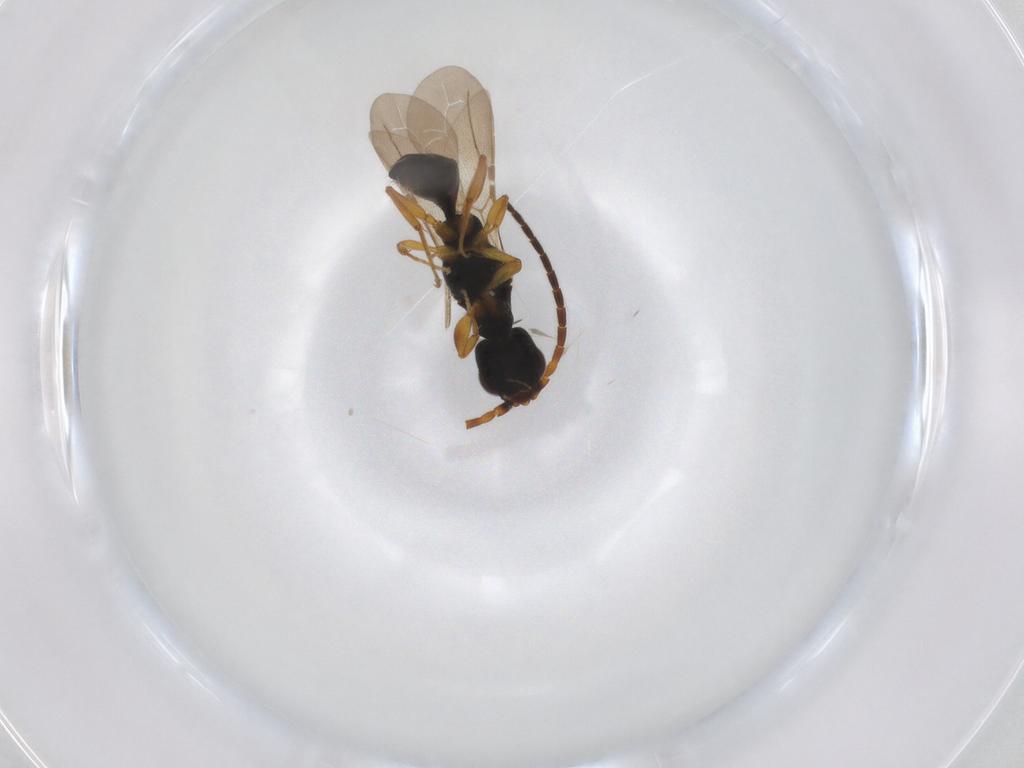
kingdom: Animalia
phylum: Arthropoda
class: Insecta
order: Hymenoptera
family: Bethylidae
